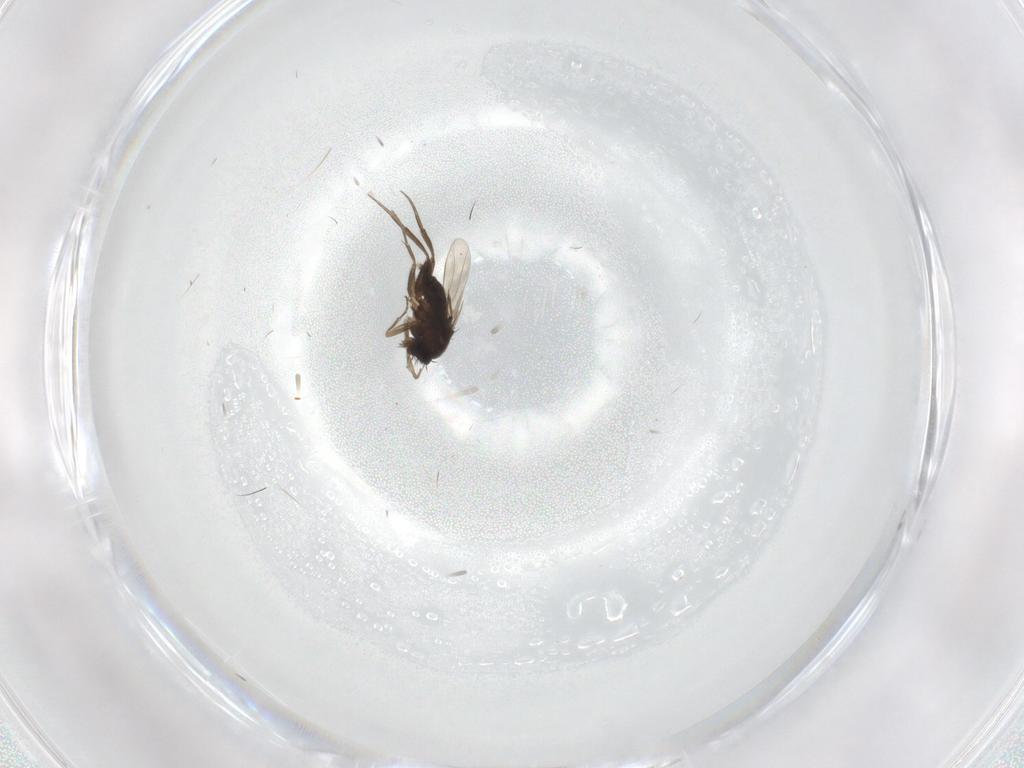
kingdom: Animalia
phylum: Arthropoda
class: Insecta
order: Diptera
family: Phoridae
